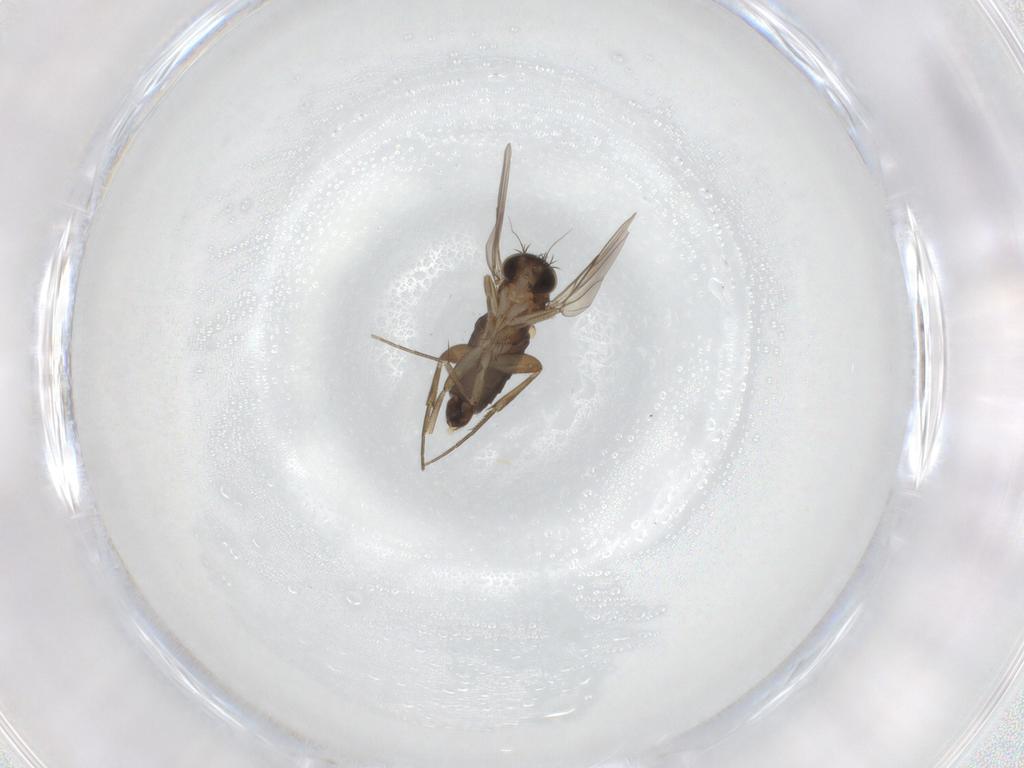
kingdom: Animalia
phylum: Arthropoda
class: Insecta
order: Diptera
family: Phoridae
